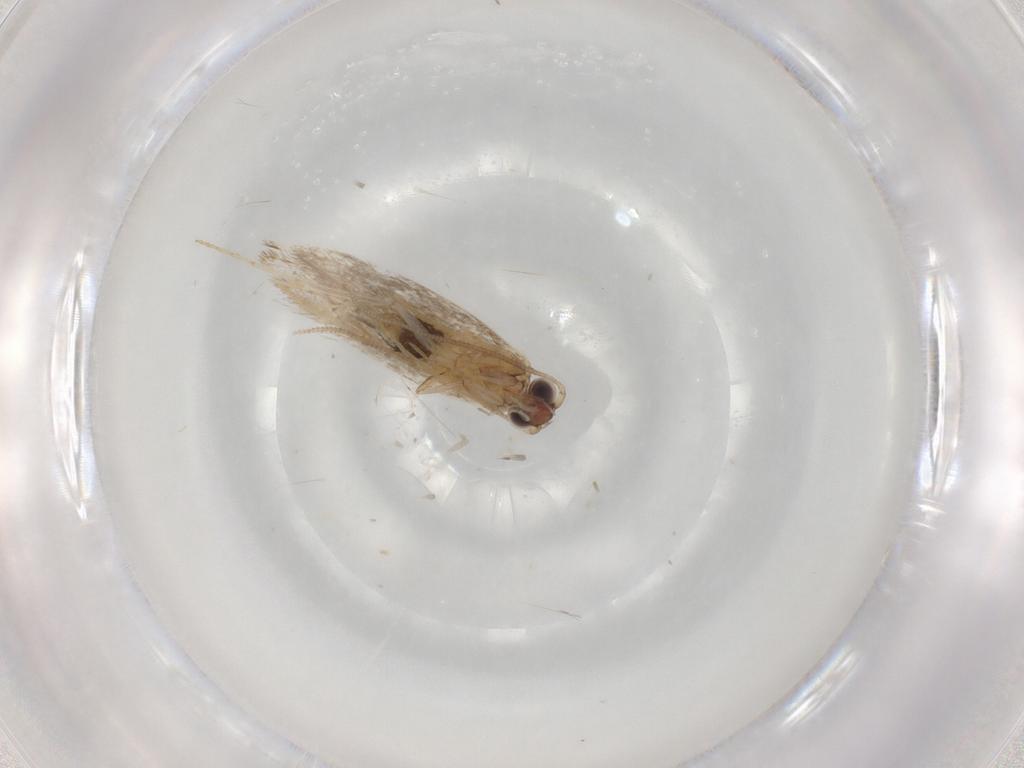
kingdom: Animalia
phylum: Arthropoda
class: Insecta
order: Lepidoptera
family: Tineidae
